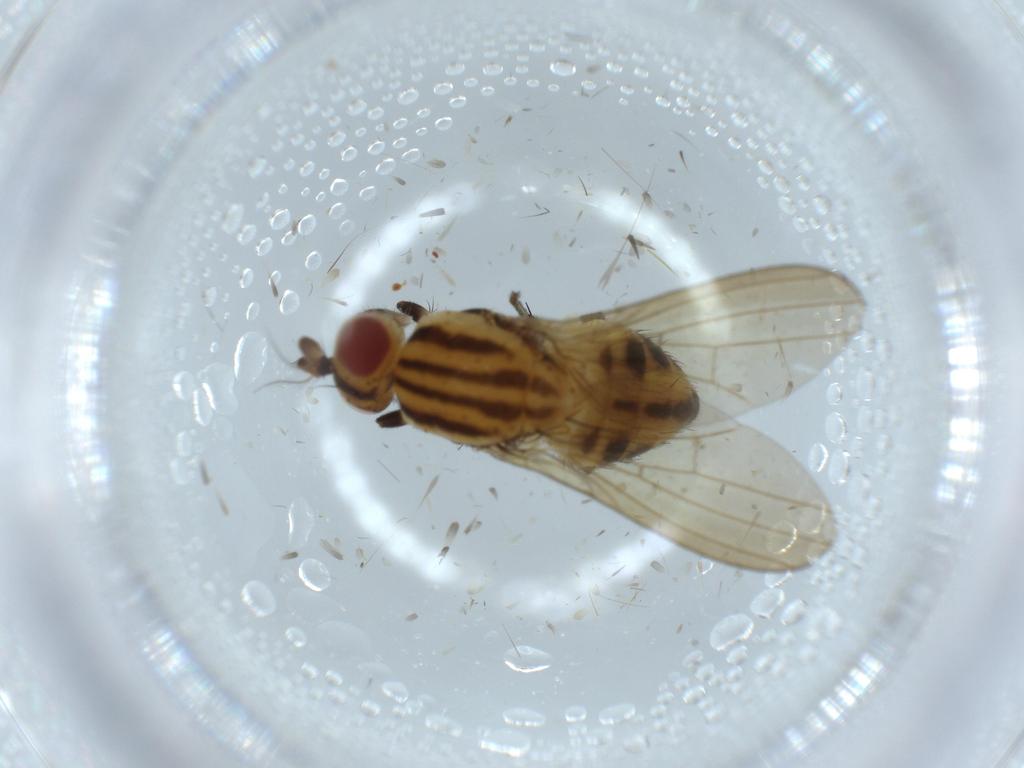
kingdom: Animalia
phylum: Arthropoda
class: Insecta
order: Diptera
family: Lauxaniidae
